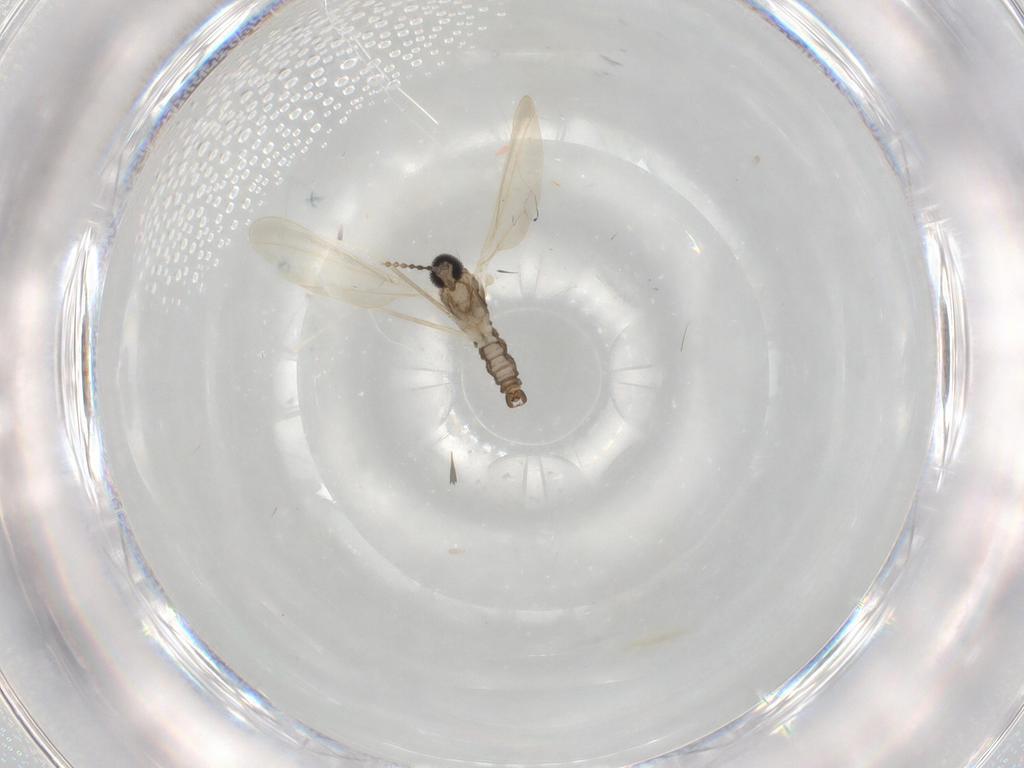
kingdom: Animalia
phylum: Arthropoda
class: Insecta
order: Diptera
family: Cecidomyiidae
